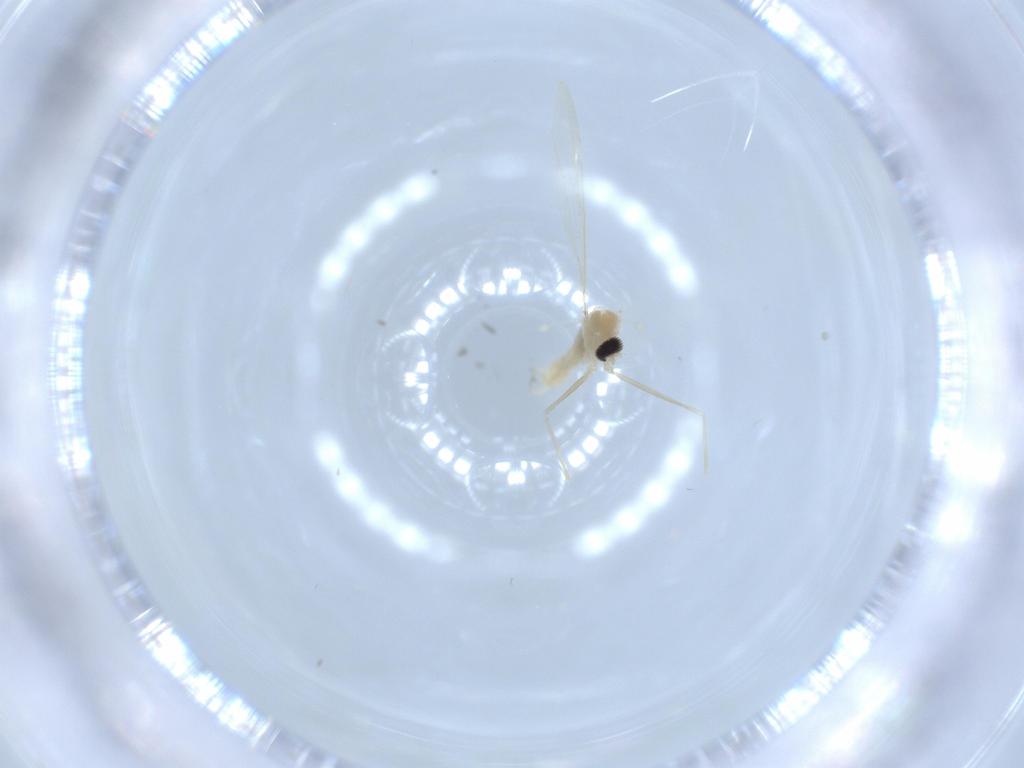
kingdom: Animalia
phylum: Arthropoda
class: Insecta
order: Diptera
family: Cecidomyiidae
